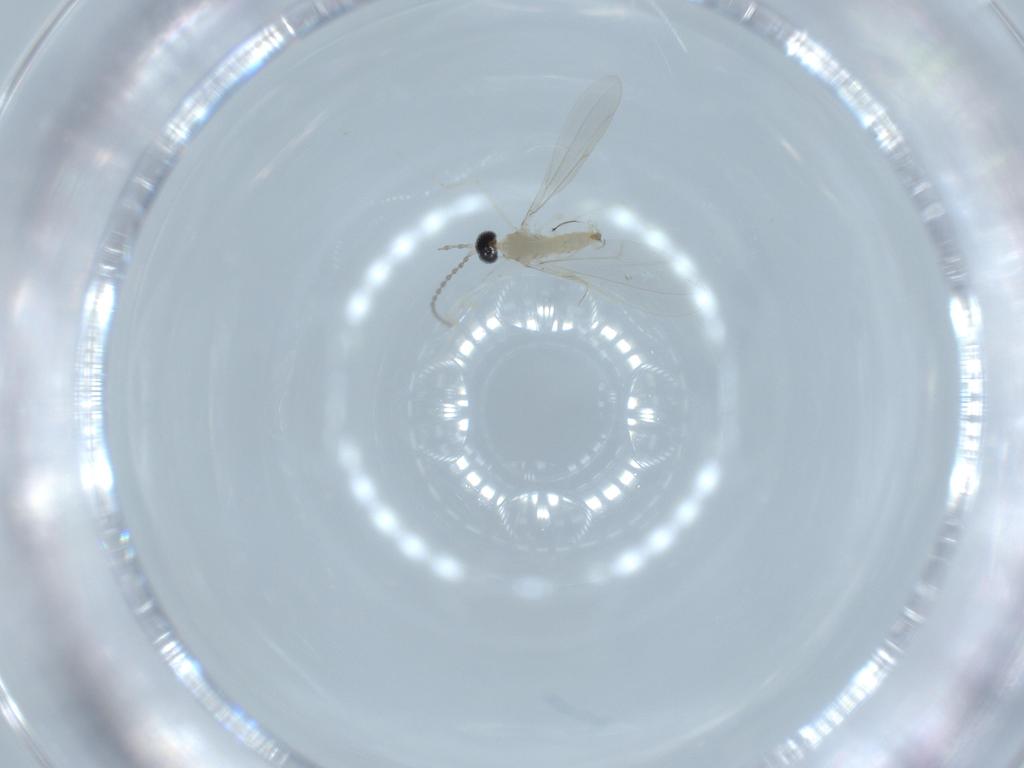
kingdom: Animalia
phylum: Arthropoda
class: Insecta
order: Diptera
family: Cecidomyiidae
